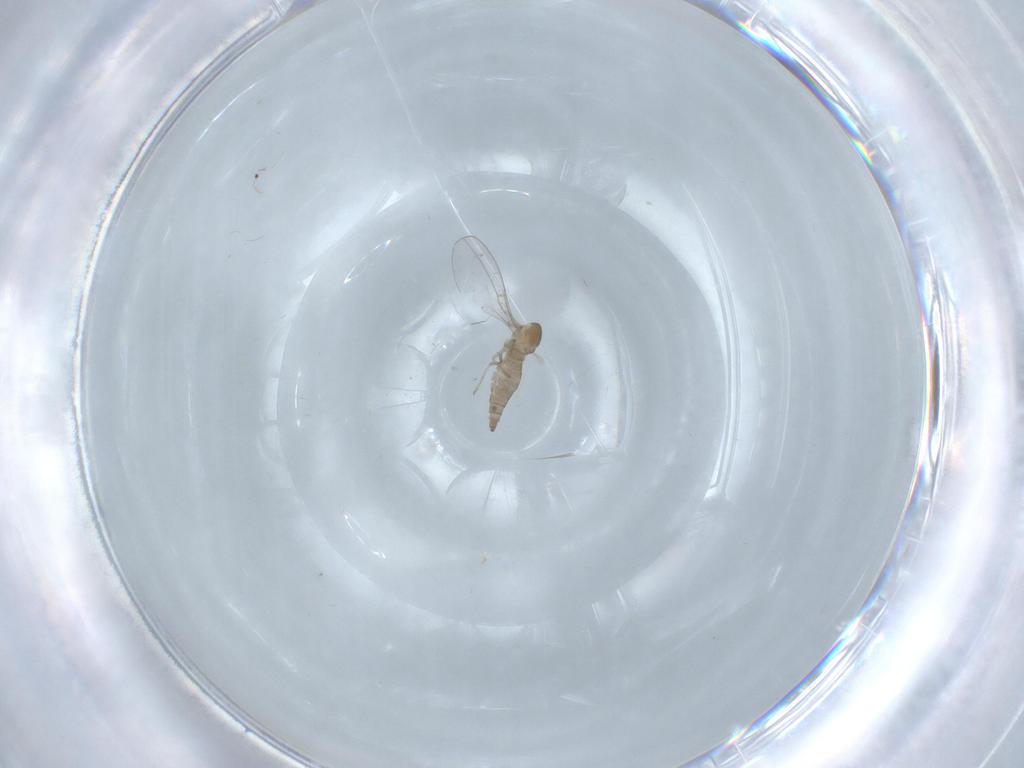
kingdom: Animalia
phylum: Arthropoda
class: Insecta
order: Diptera
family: Cecidomyiidae
